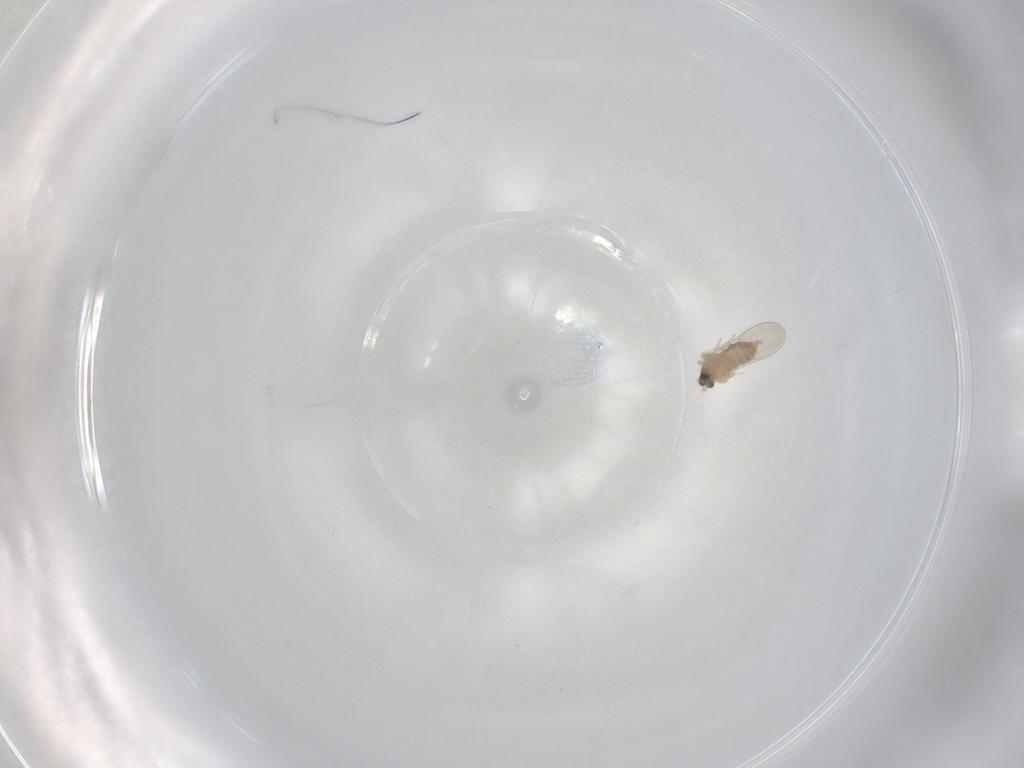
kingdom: Animalia
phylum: Arthropoda
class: Insecta
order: Diptera
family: Cecidomyiidae
